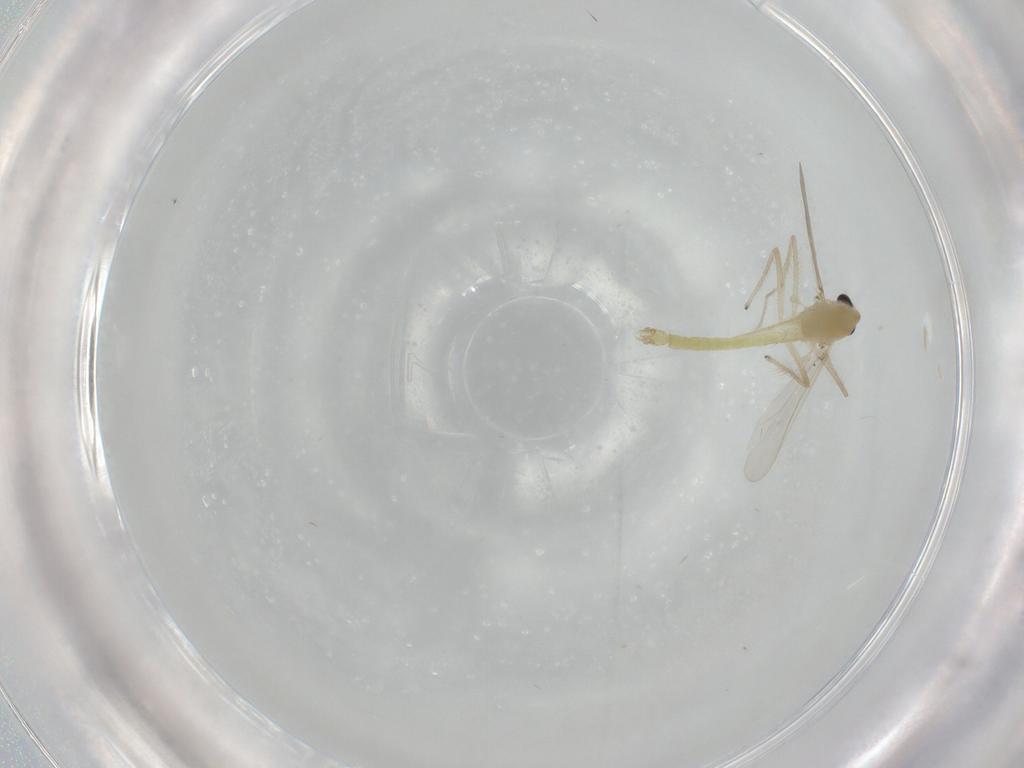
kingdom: Animalia
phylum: Arthropoda
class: Insecta
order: Diptera
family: Chironomidae
